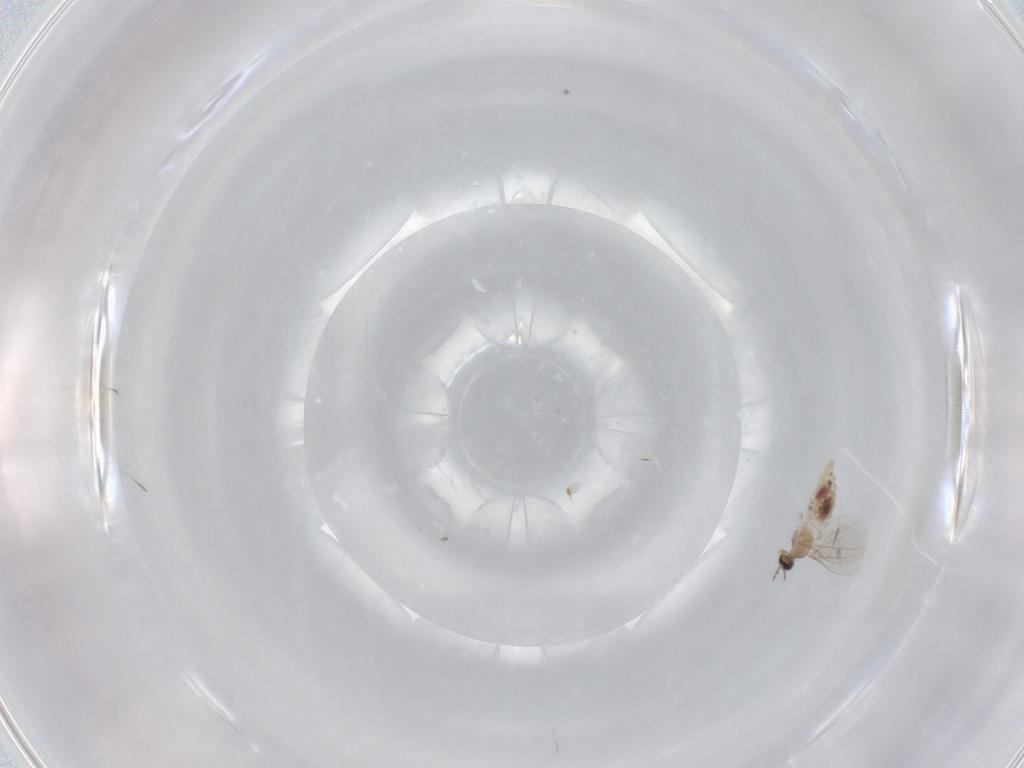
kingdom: Animalia
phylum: Arthropoda
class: Insecta
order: Diptera
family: Cecidomyiidae
